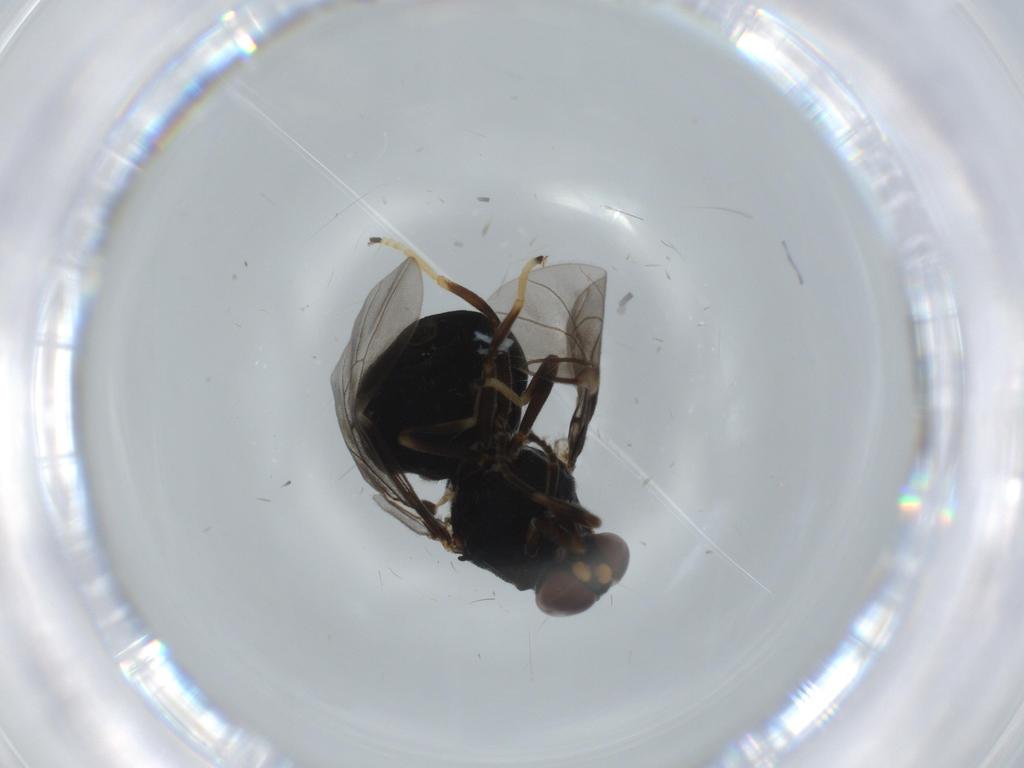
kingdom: Animalia
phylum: Arthropoda
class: Insecta
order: Diptera
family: Stratiomyidae
